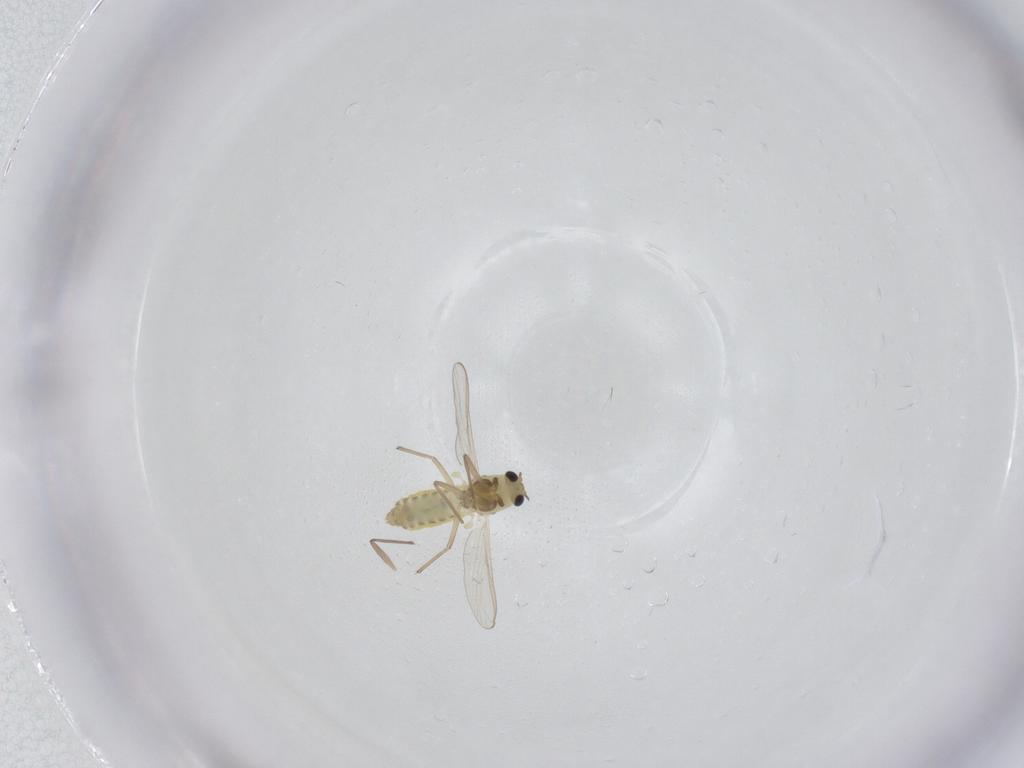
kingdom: Animalia
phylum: Arthropoda
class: Insecta
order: Diptera
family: Chironomidae
